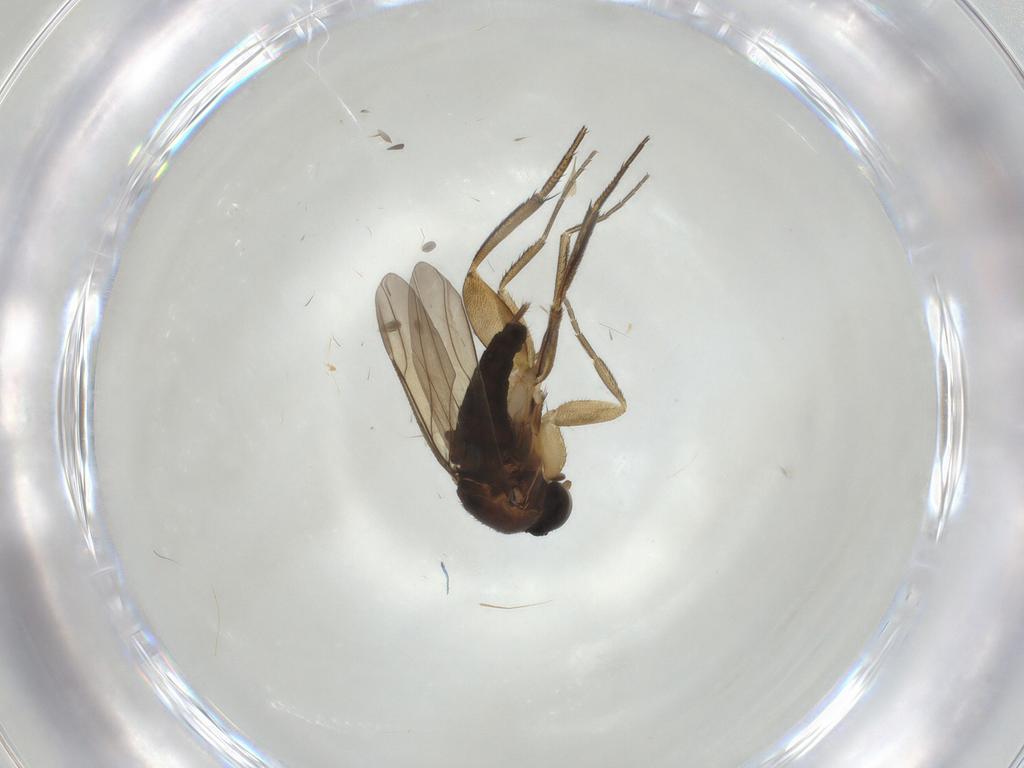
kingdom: Animalia
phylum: Arthropoda
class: Insecta
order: Diptera
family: Phoridae
